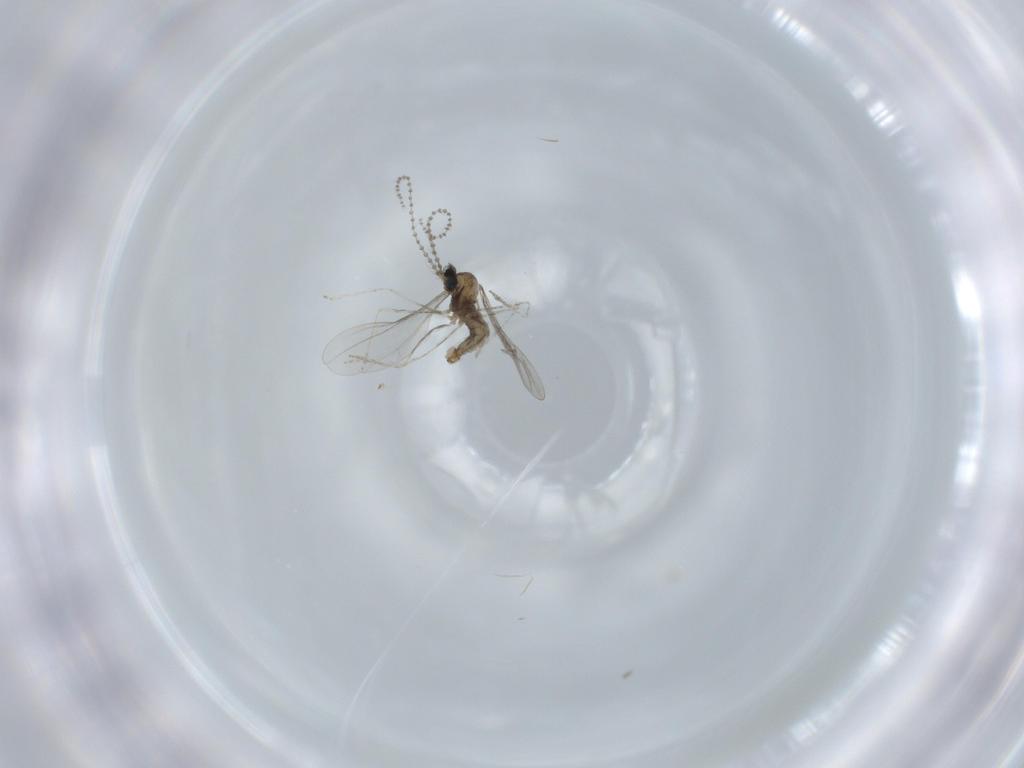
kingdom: Animalia
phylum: Arthropoda
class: Insecta
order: Diptera
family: Cecidomyiidae
